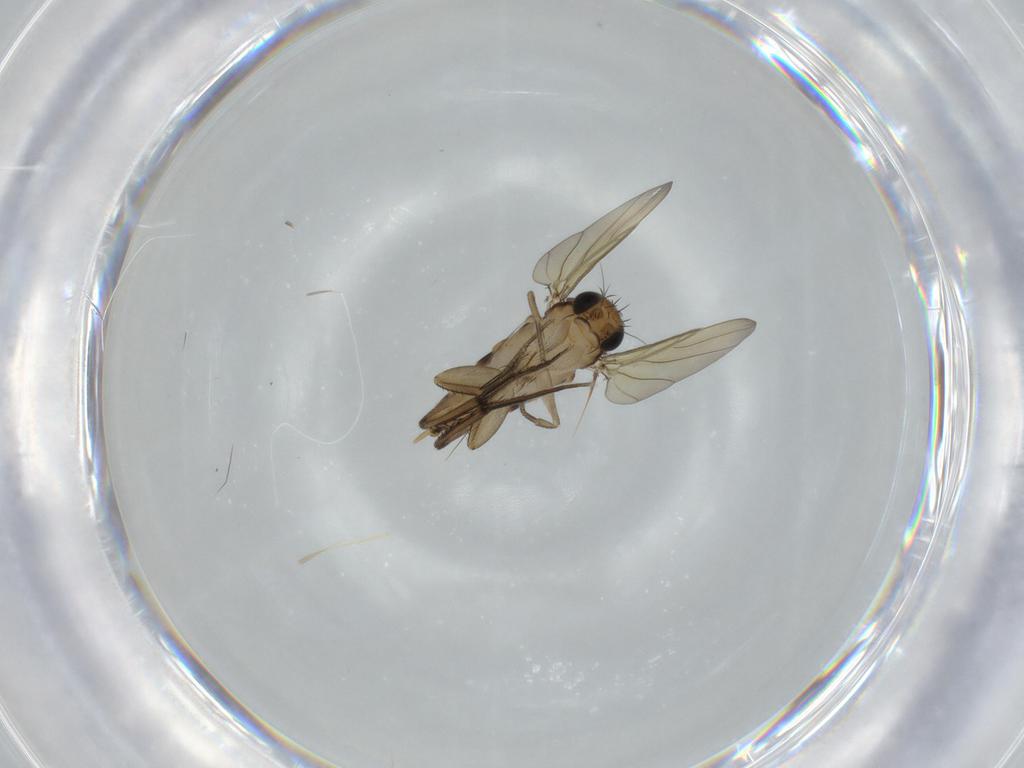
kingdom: Animalia
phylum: Arthropoda
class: Insecta
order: Diptera
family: Phoridae
